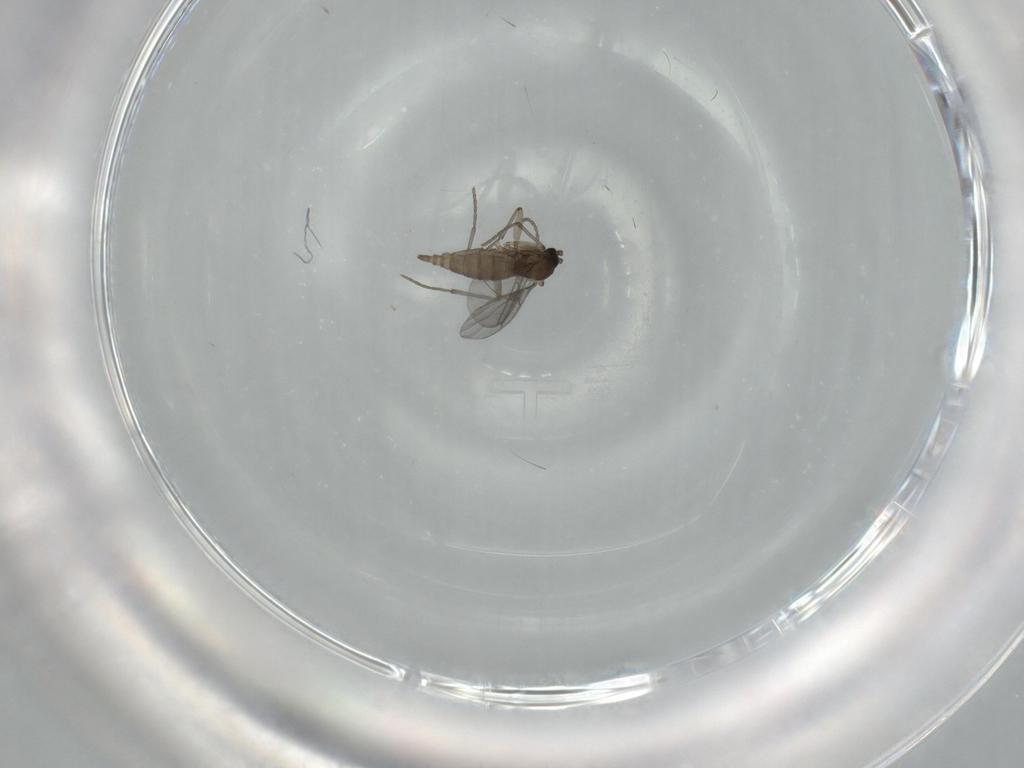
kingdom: Animalia
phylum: Arthropoda
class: Insecta
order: Diptera
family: Sciaridae
